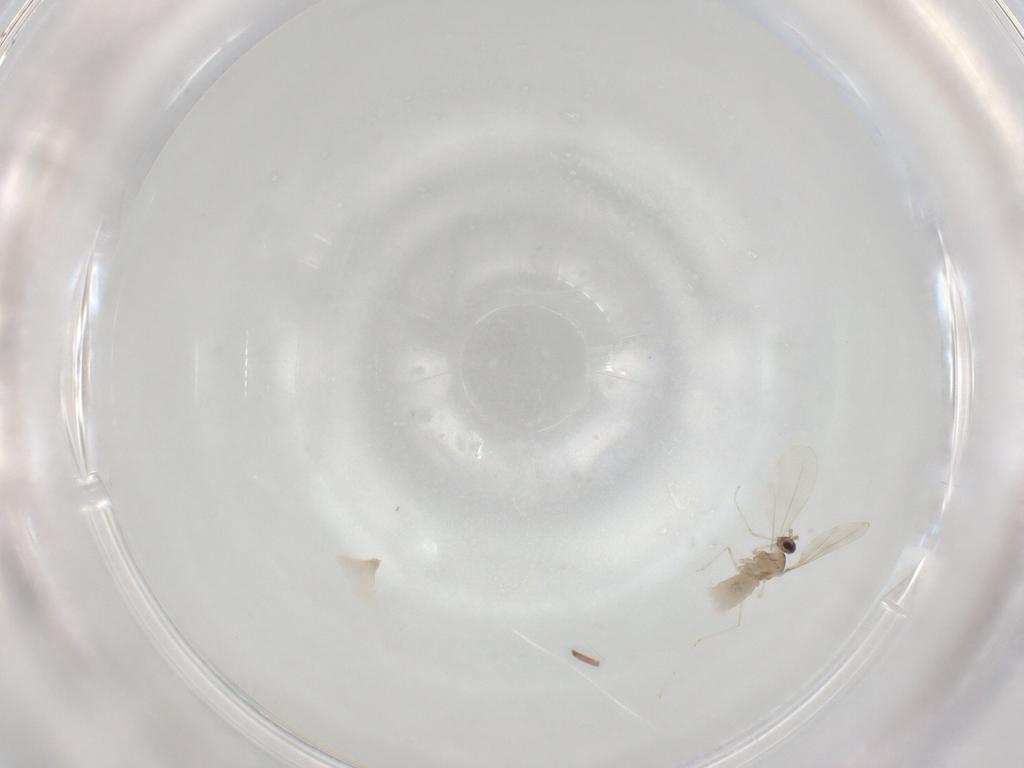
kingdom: Animalia
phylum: Arthropoda
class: Insecta
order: Diptera
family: Cecidomyiidae
